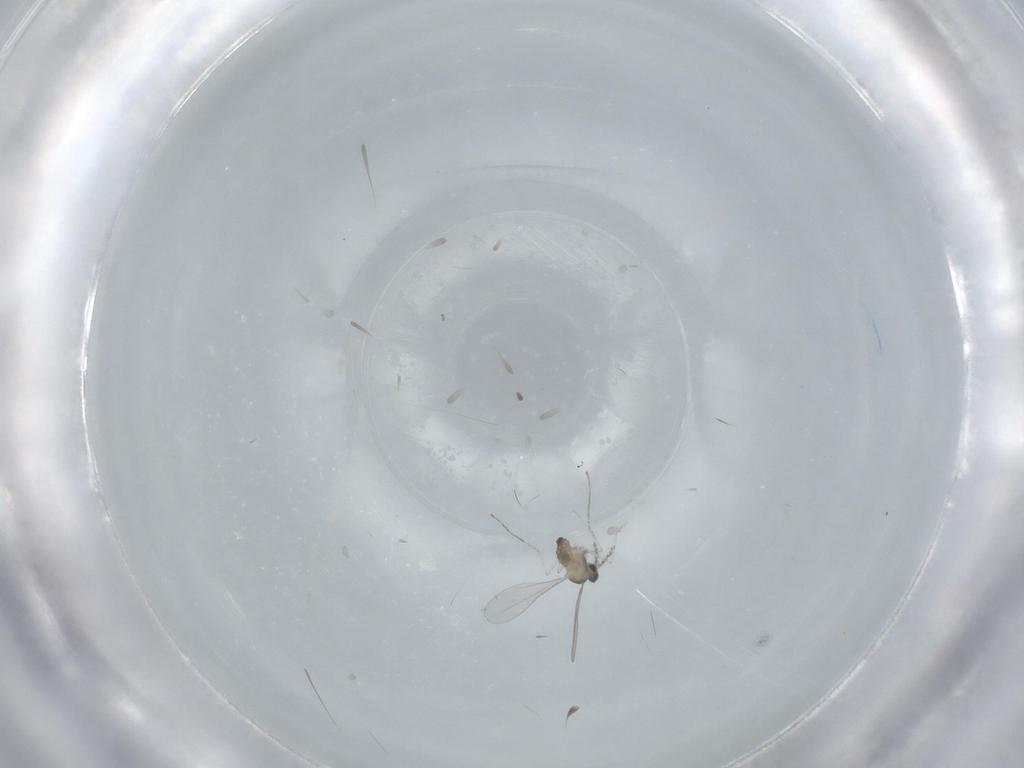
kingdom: Animalia
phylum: Arthropoda
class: Insecta
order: Diptera
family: Cecidomyiidae
